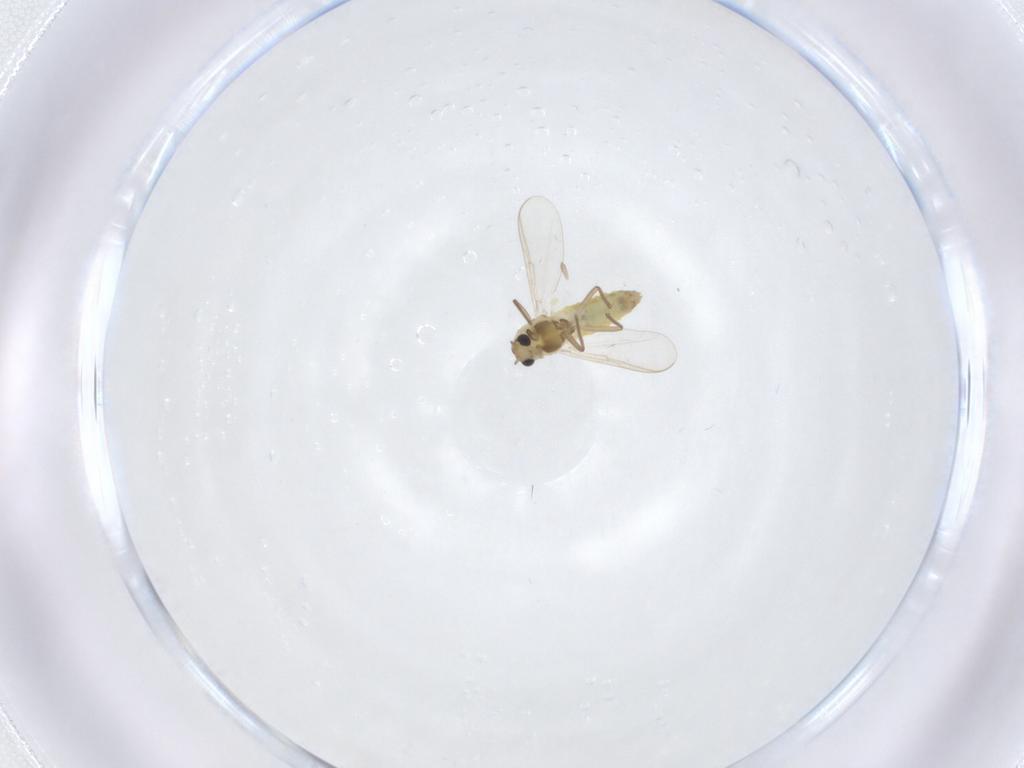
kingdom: Animalia
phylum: Arthropoda
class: Insecta
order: Diptera
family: Chironomidae
